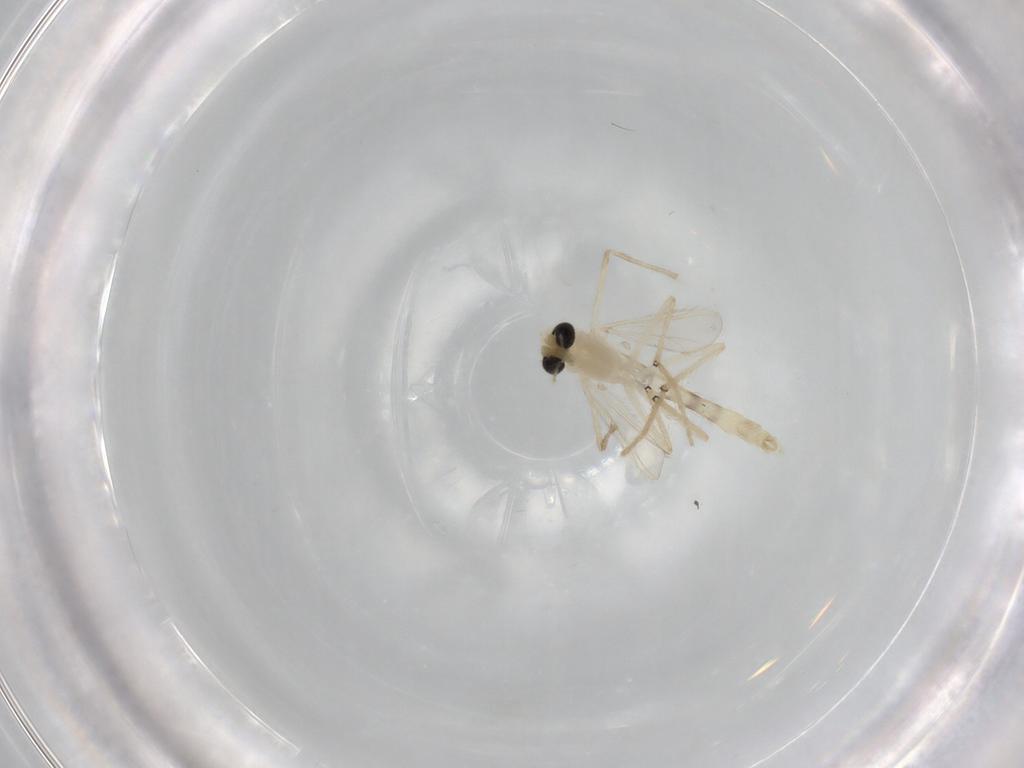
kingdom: Animalia
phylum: Arthropoda
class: Insecta
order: Diptera
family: Chironomidae
